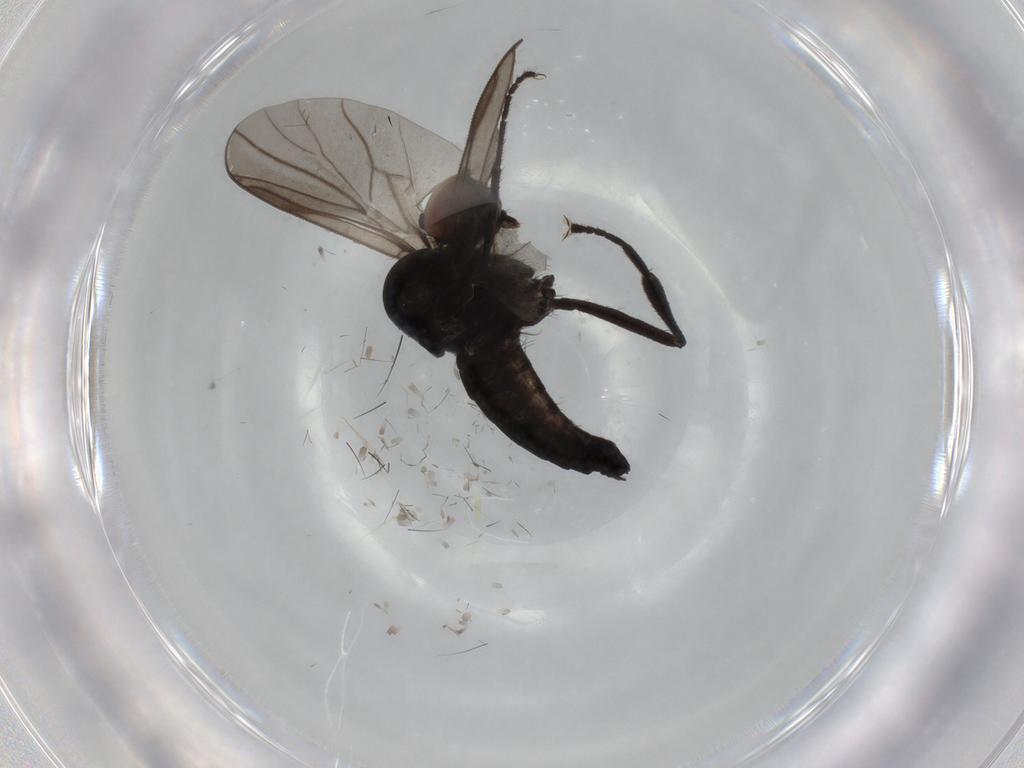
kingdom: Animalia
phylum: Arthropoda
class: Insecta
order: Diptera
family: Hybotidae
